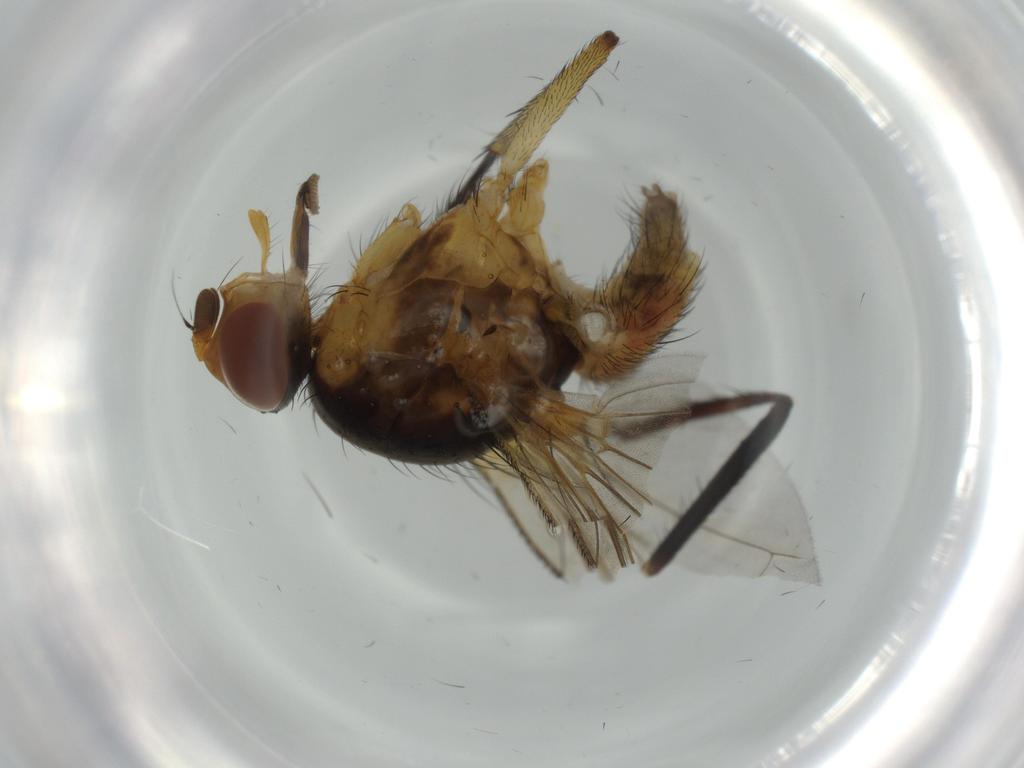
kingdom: Animalia
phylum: Arthropoda
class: Insecta
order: Diptera
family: Anthomyiidae
